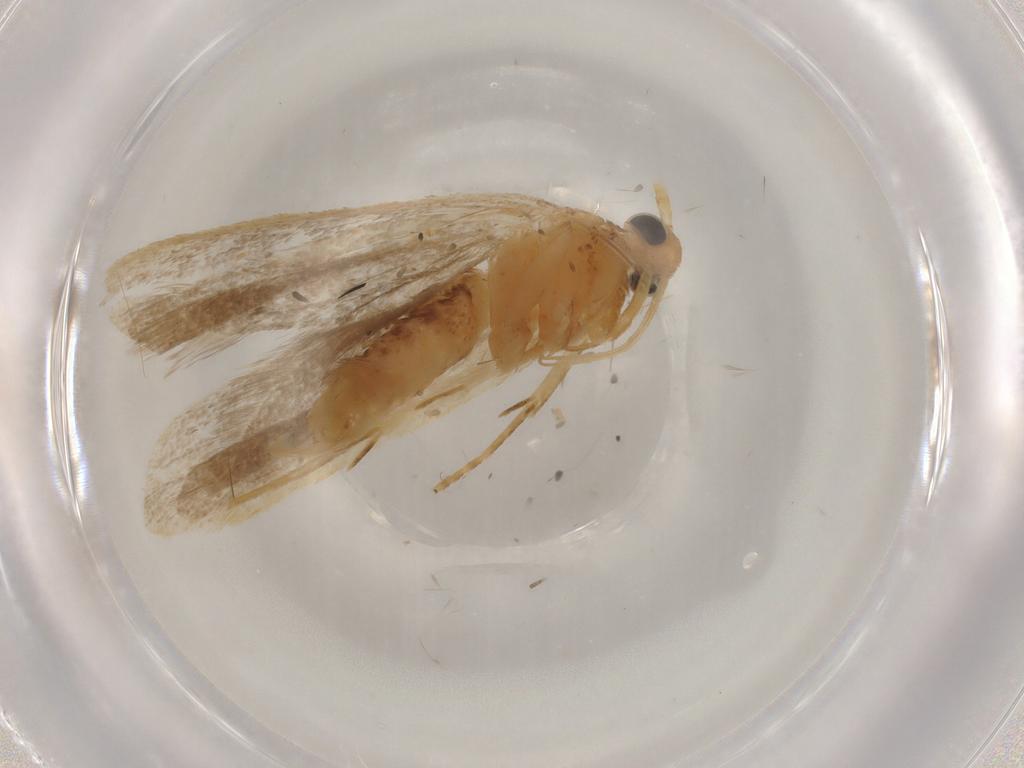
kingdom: Animalia
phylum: Arthropoda
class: Insecta
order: Lepidoptera
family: Lecithoceridae
